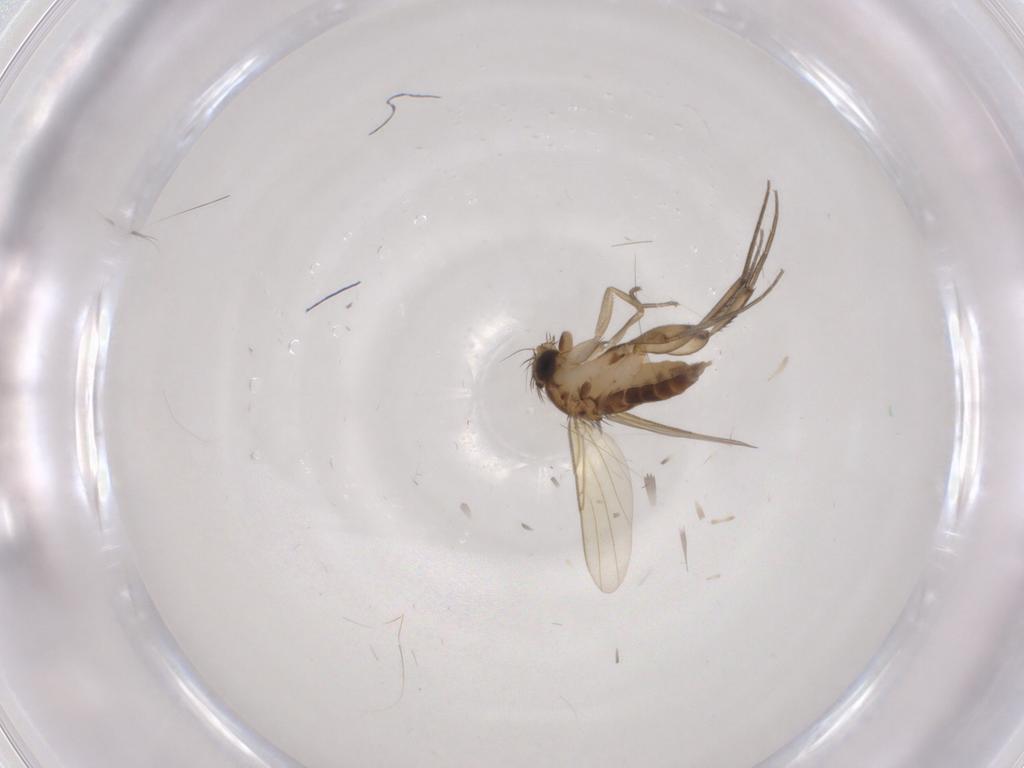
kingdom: Animalia
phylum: Arthropoda
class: Insecta
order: Diptera
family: Phoridae
